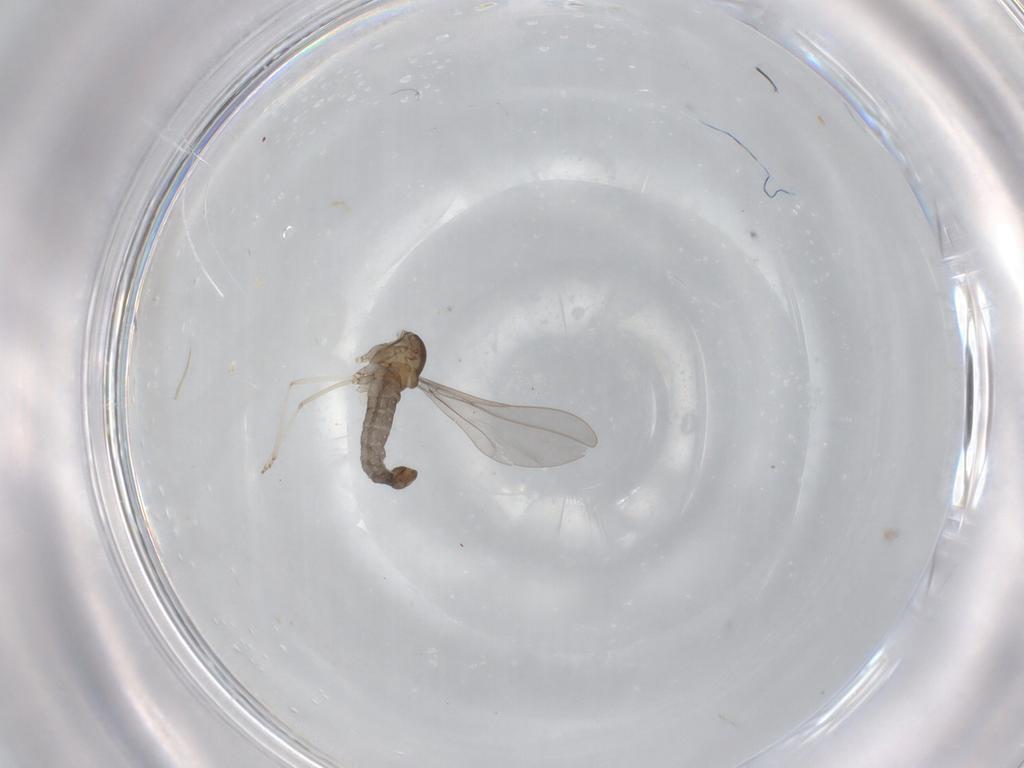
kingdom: Animalia
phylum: Arthropoda
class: Insecta
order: Diptera
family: Cecidomyiidae
